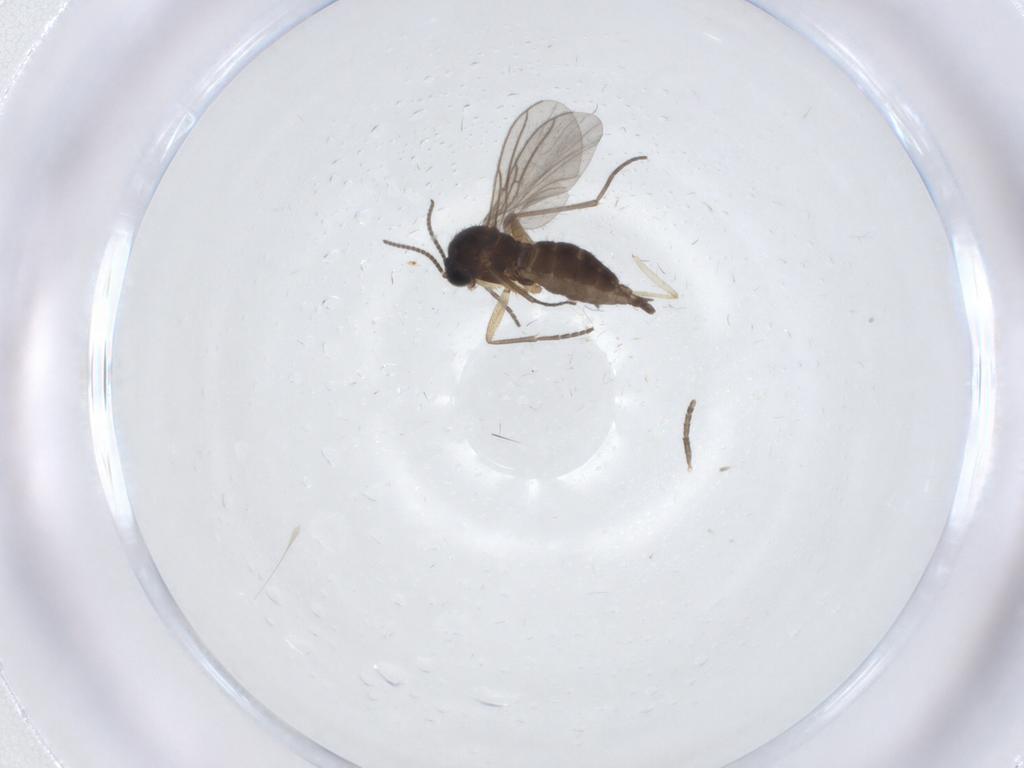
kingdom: Animalia
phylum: Arthropoda
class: Insecta
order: Diptera
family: Sciaridae
